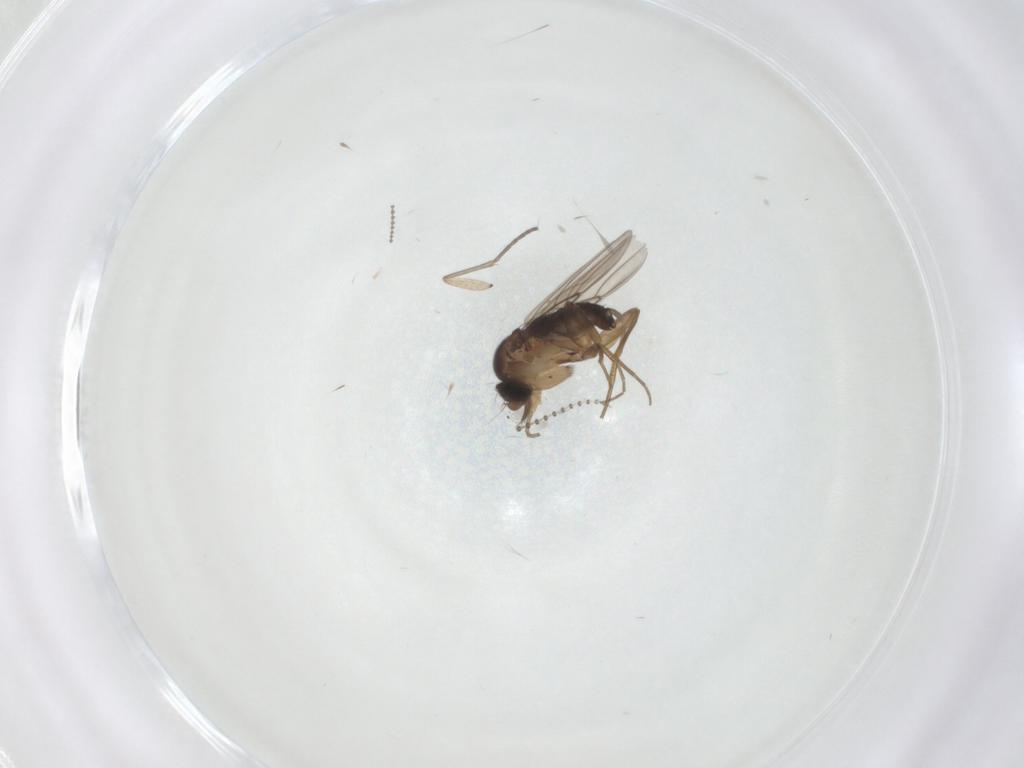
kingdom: Animalia
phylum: Arthropoda
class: Insecta
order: Diptera
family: Phoridae
